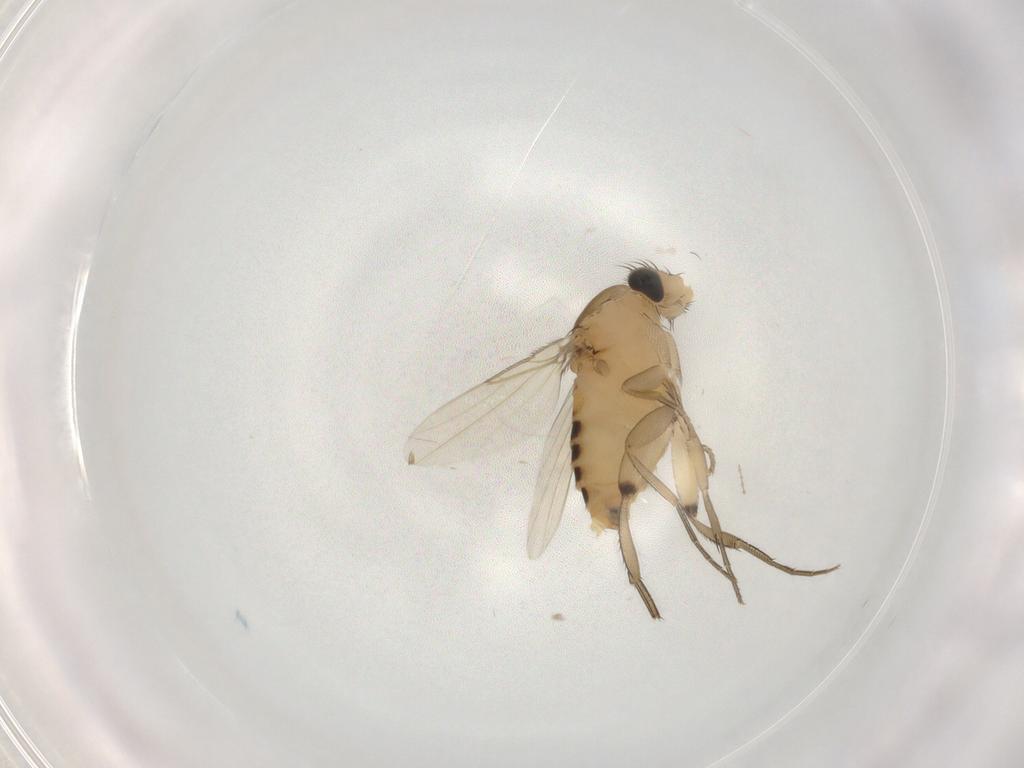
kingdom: Animalia
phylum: Arthropoda
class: Insecta
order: Diptera
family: Phoridae
